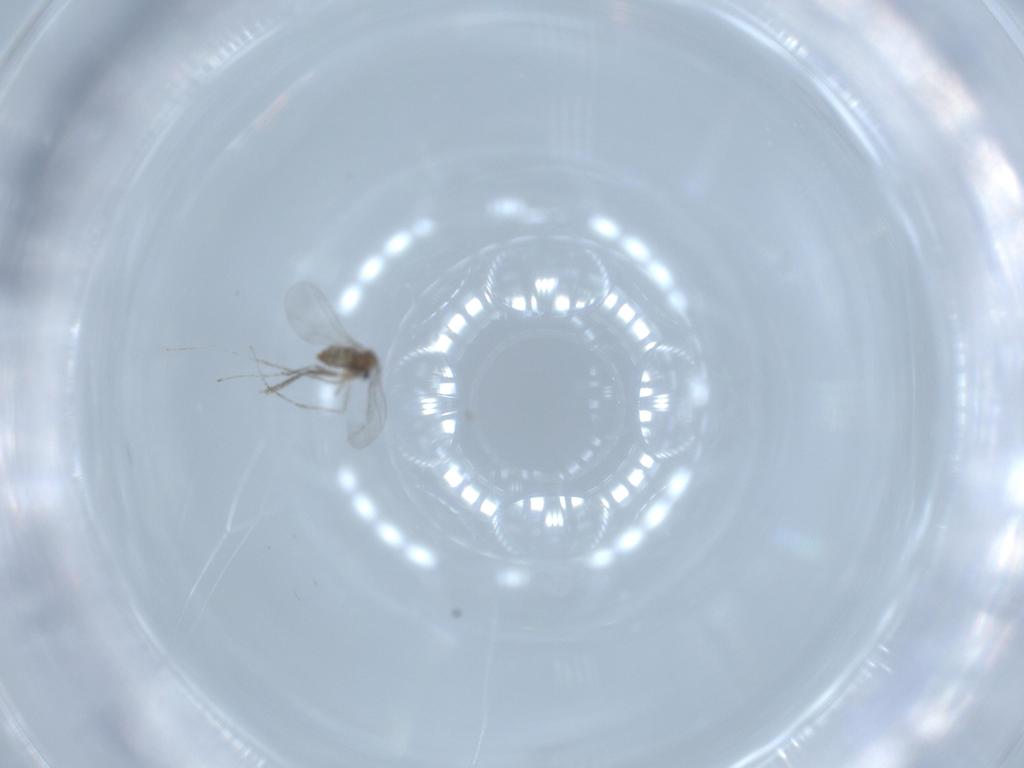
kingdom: Animalia
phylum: Arthropoda
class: Insecta
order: Diptera
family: Cecidomyiidae
